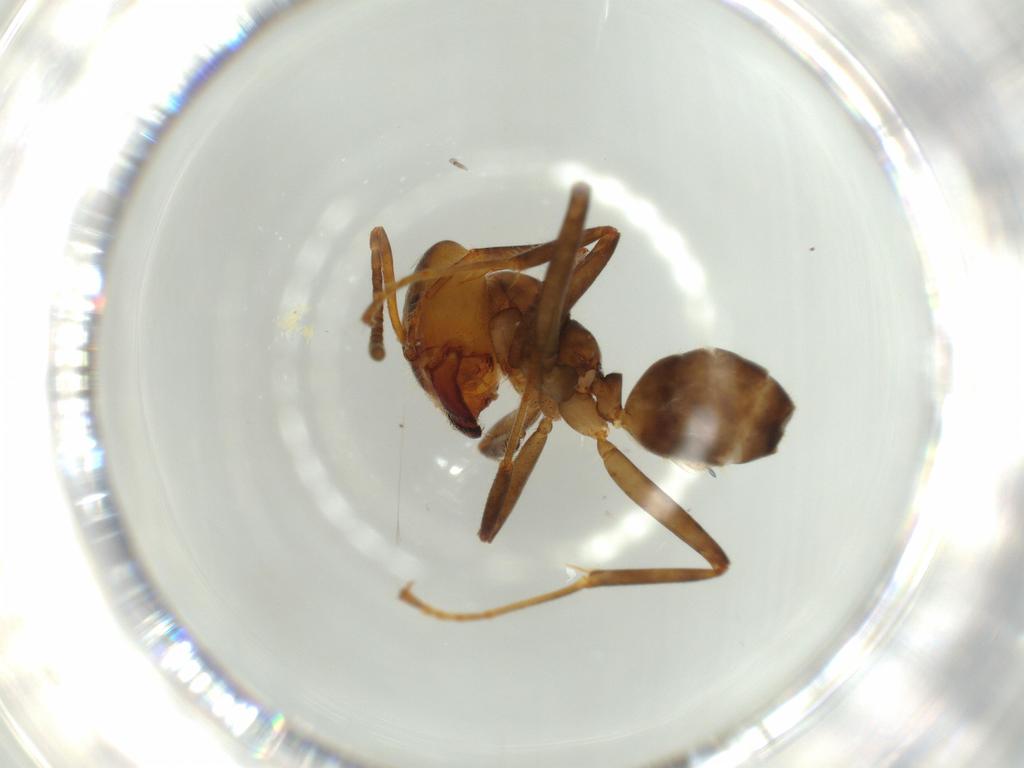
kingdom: Animalia
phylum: Arthropoda
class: Insecta
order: Hymenoptera
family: Formicidae
